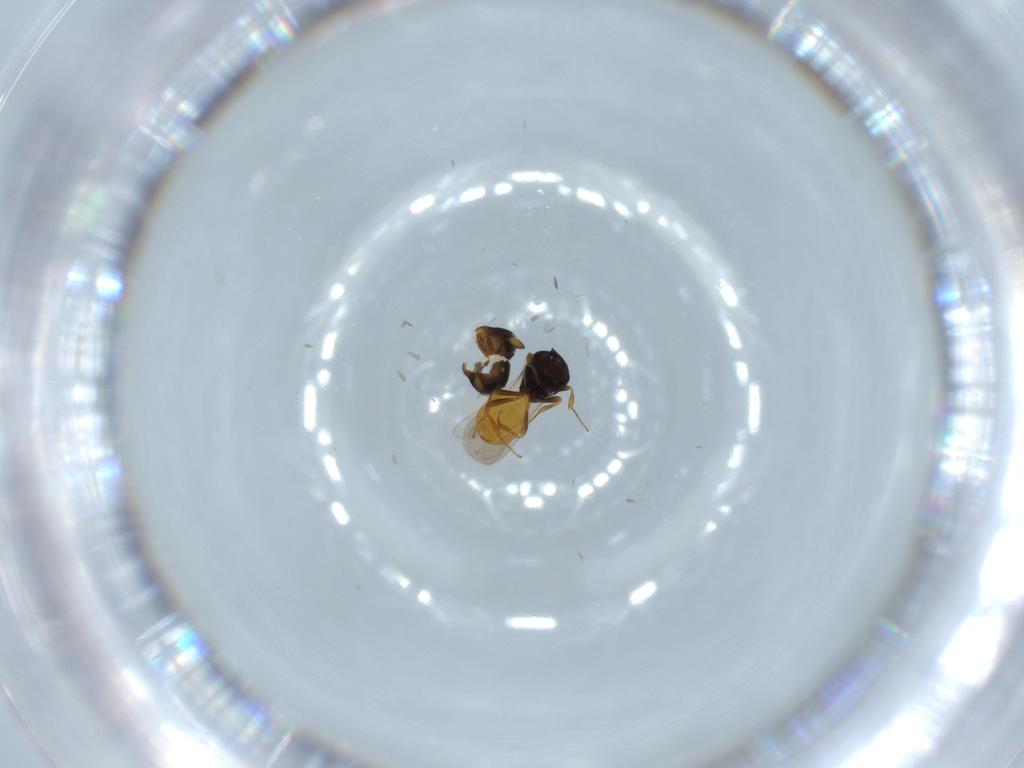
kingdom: Animalia
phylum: Arthropoda
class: Insecta
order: Hymenoptera
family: Scelionidae
